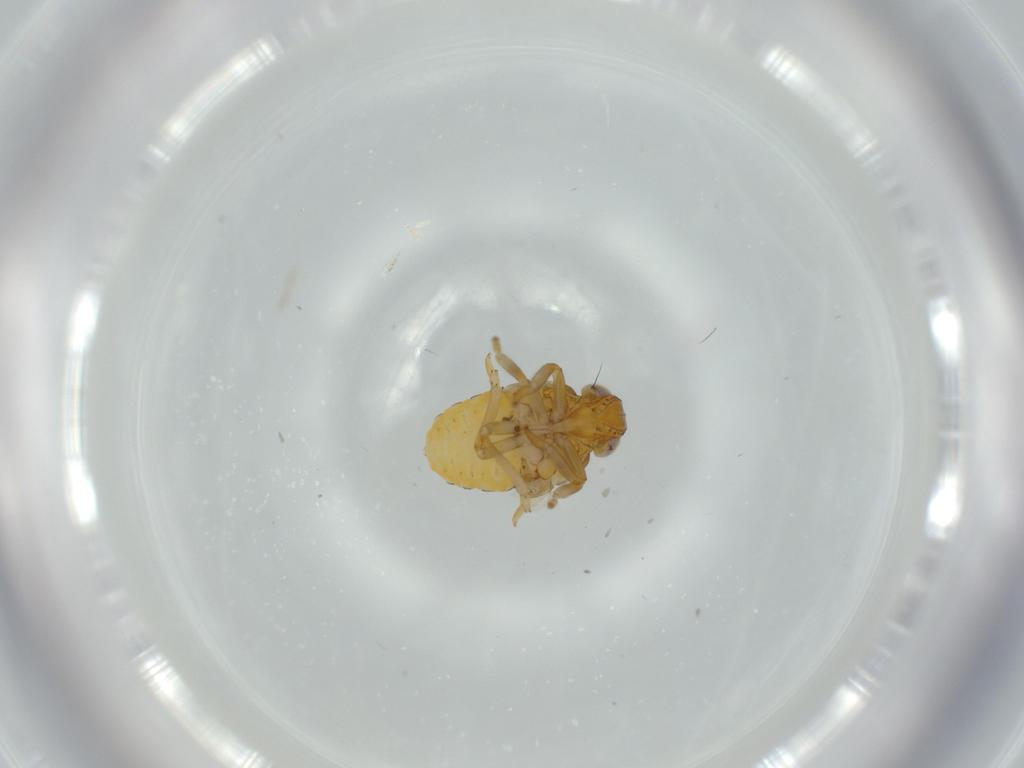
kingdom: Animalia
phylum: Arthropoda
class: Insecta
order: Hemiptera
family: Issidae
